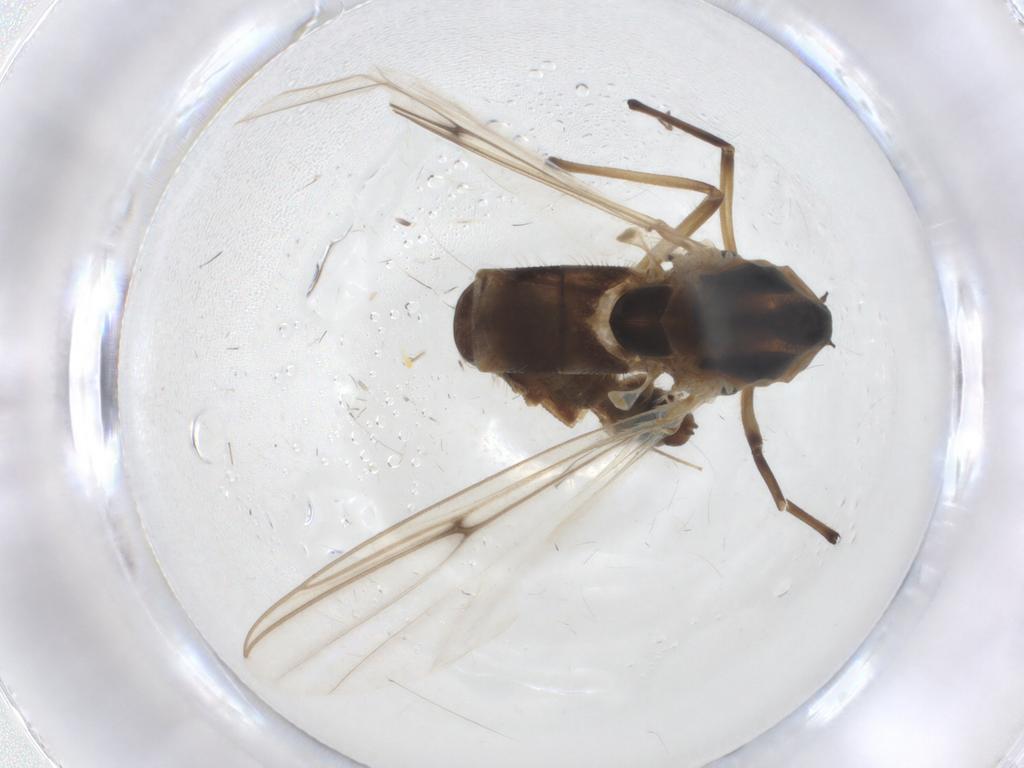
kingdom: Animalia
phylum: Arthropoda
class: Insecta
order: Diptera
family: Chironomidae
